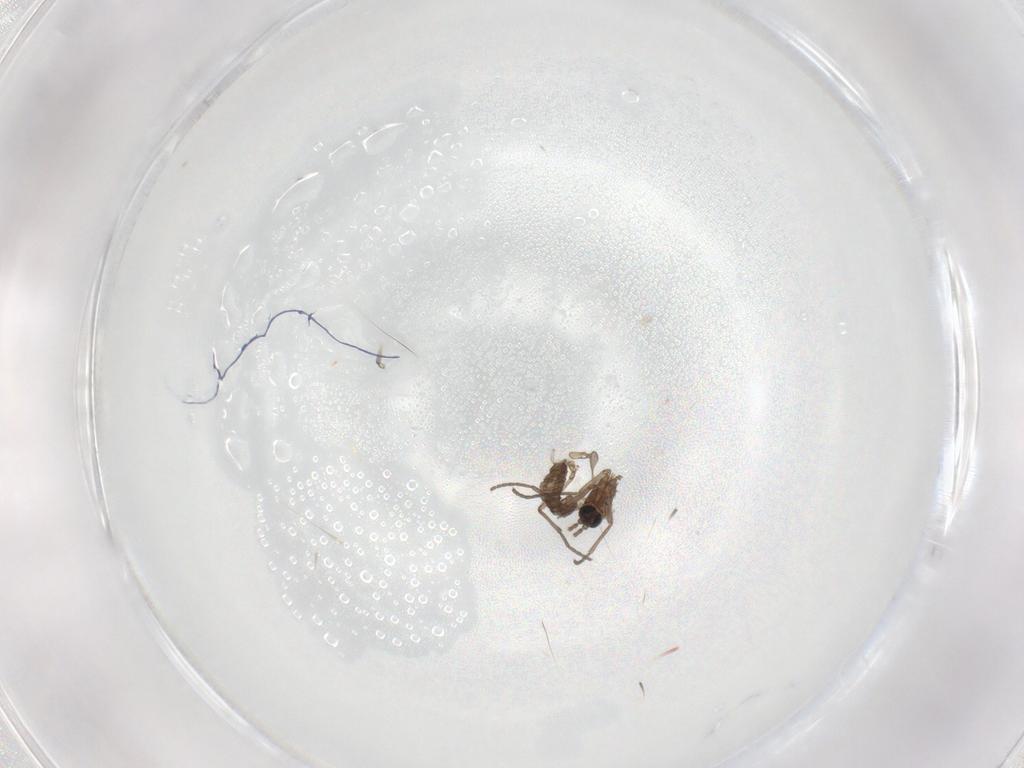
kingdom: Animalia
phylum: Arthropoda
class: Insecta
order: Diptera
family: Sciaridae
